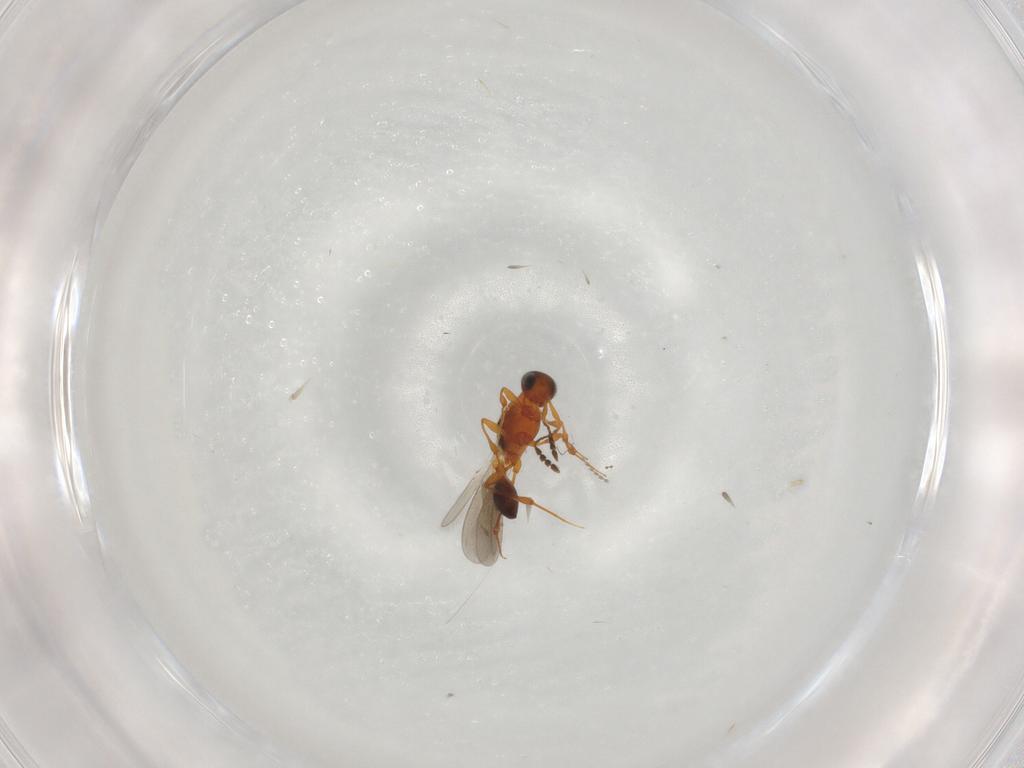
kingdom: Animalia
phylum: Arthropoda
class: Insecta
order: Hymenoptera
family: Platygastridae
